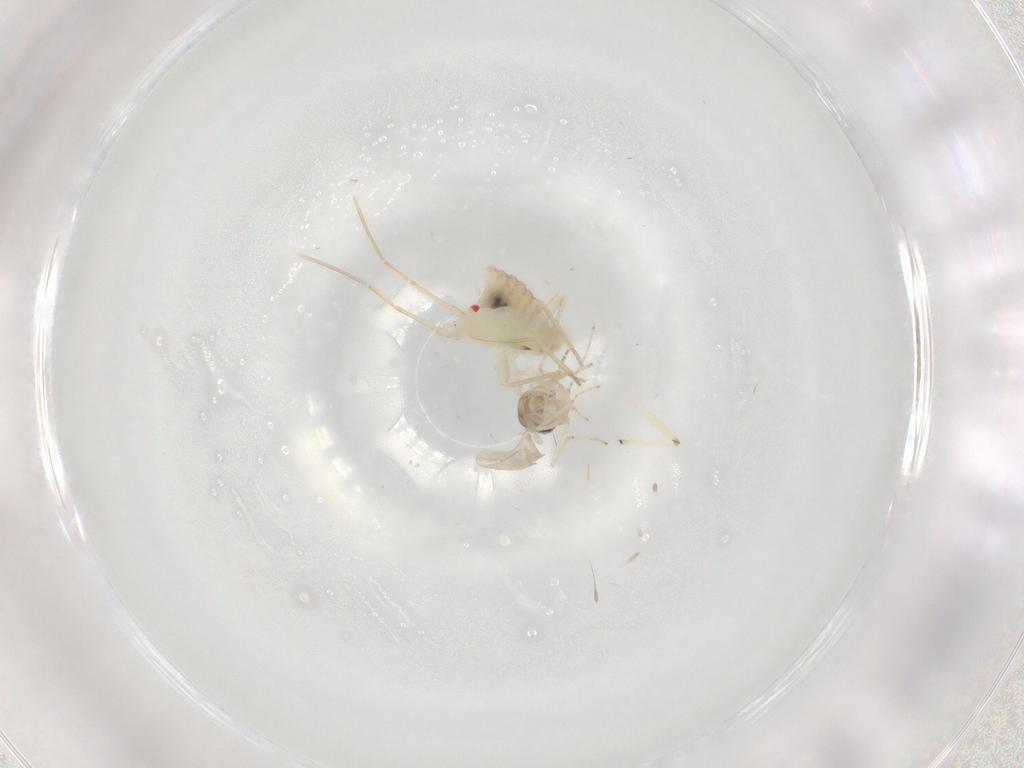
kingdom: Animalia
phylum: Arthropoda
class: Insecta
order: Diptera
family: Cecidomyiidae
